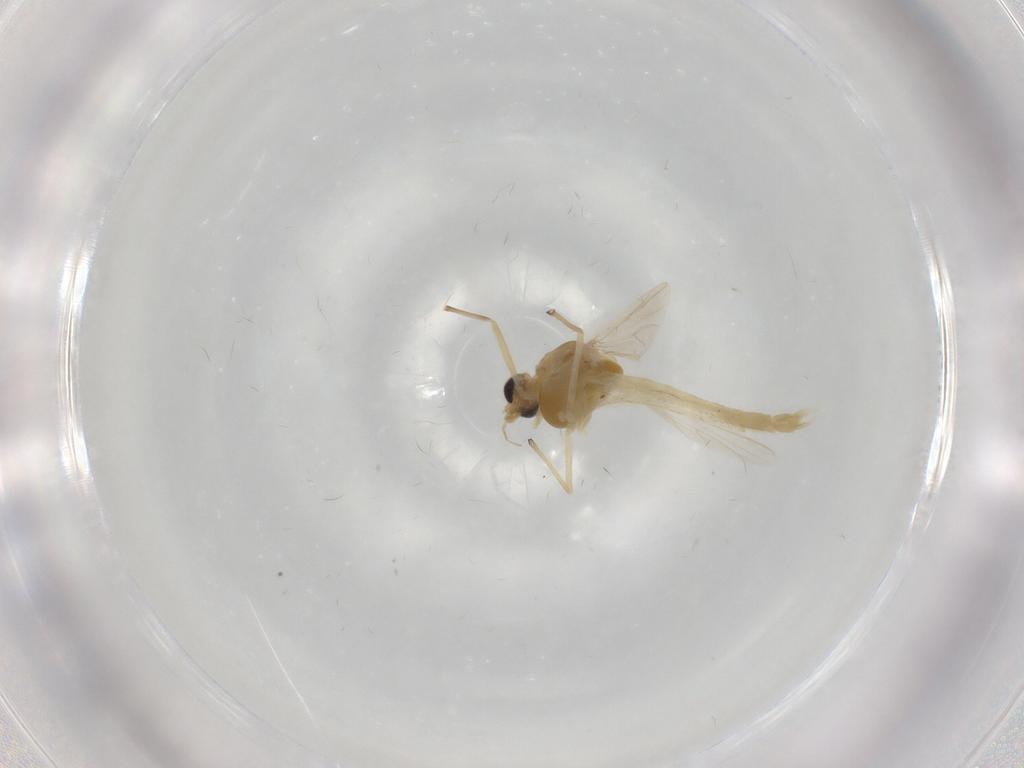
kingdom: Animalia
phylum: Arthropoda
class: Insecta
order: Diptera
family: Chironomidae
